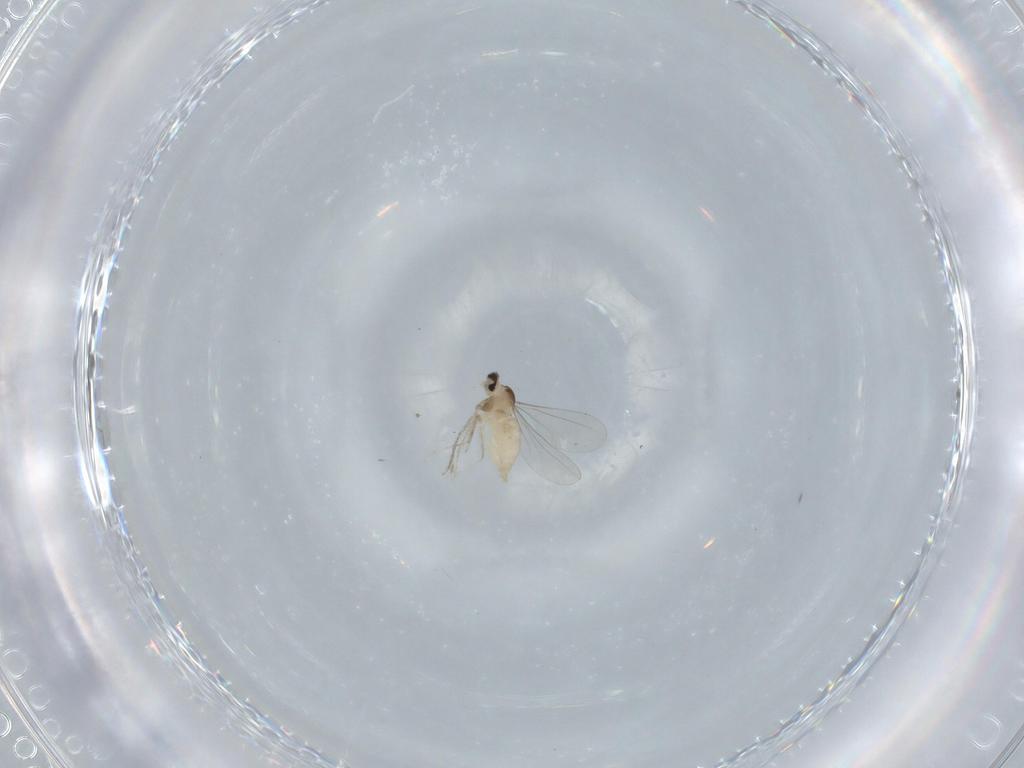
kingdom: Animalia
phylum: Arthropoda
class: Insecta
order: Diptera
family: Cecidomyiidae
